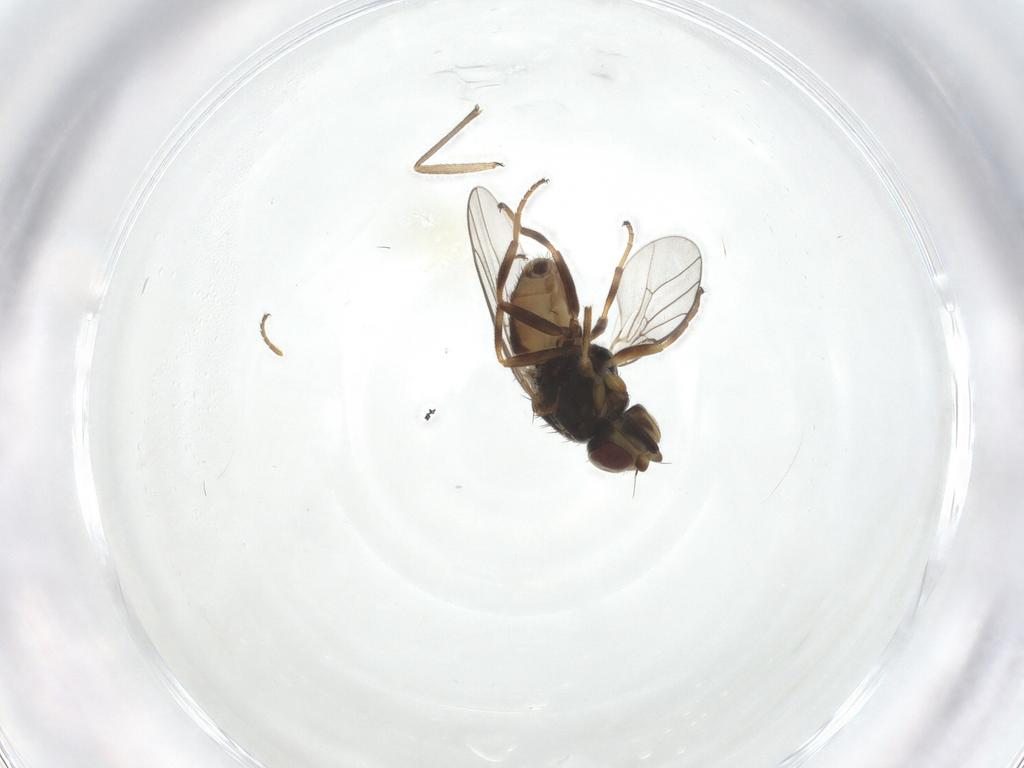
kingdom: Animalia
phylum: Arthropoda
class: Insecta
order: Diptera
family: Chloropidae
